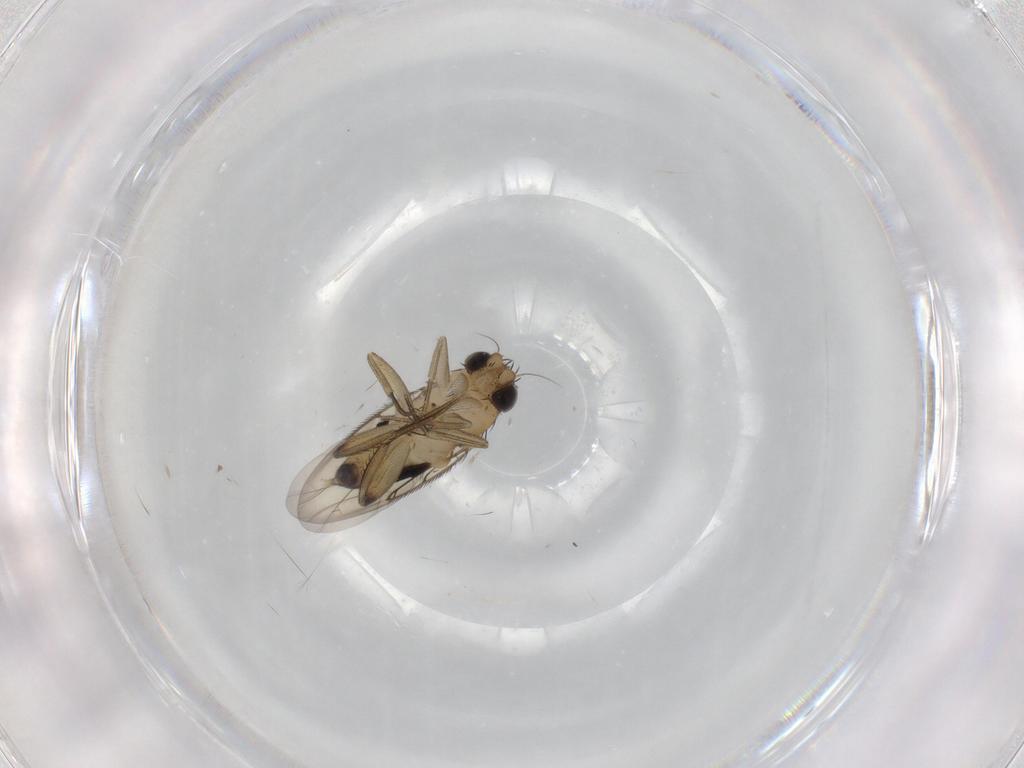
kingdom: Animalia
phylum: Arthropoda
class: Insecta
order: Diptera
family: Phoridae
